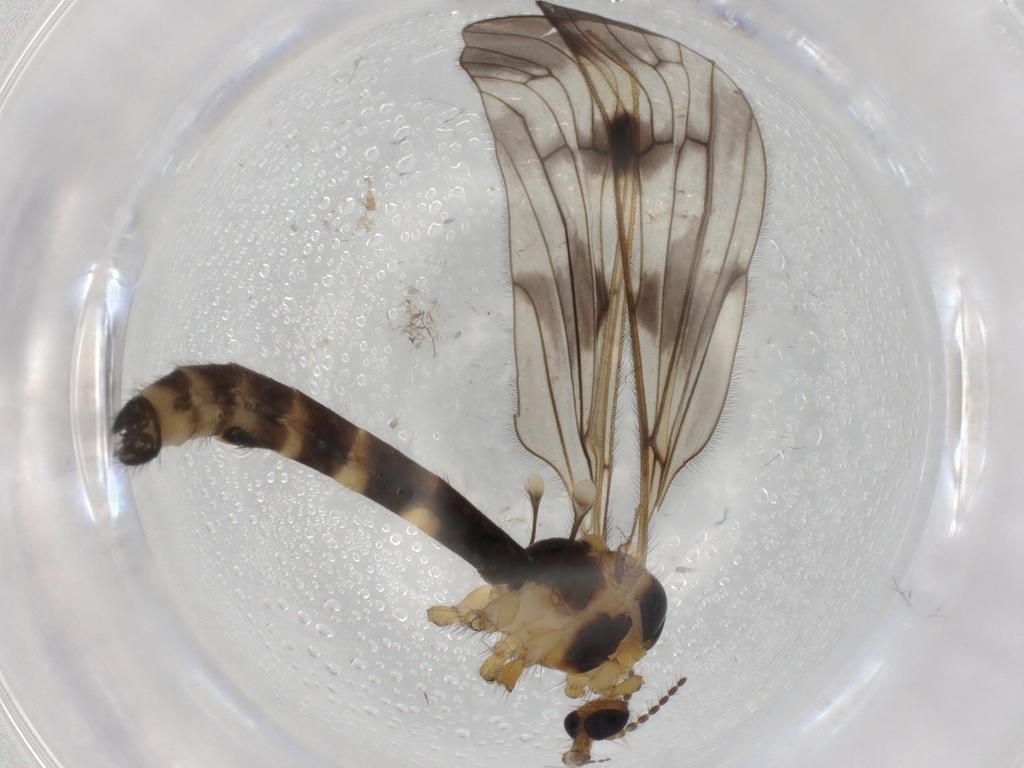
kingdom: Animalia
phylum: Arthropoda
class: Insecta
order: Diptera
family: Limoniidae
